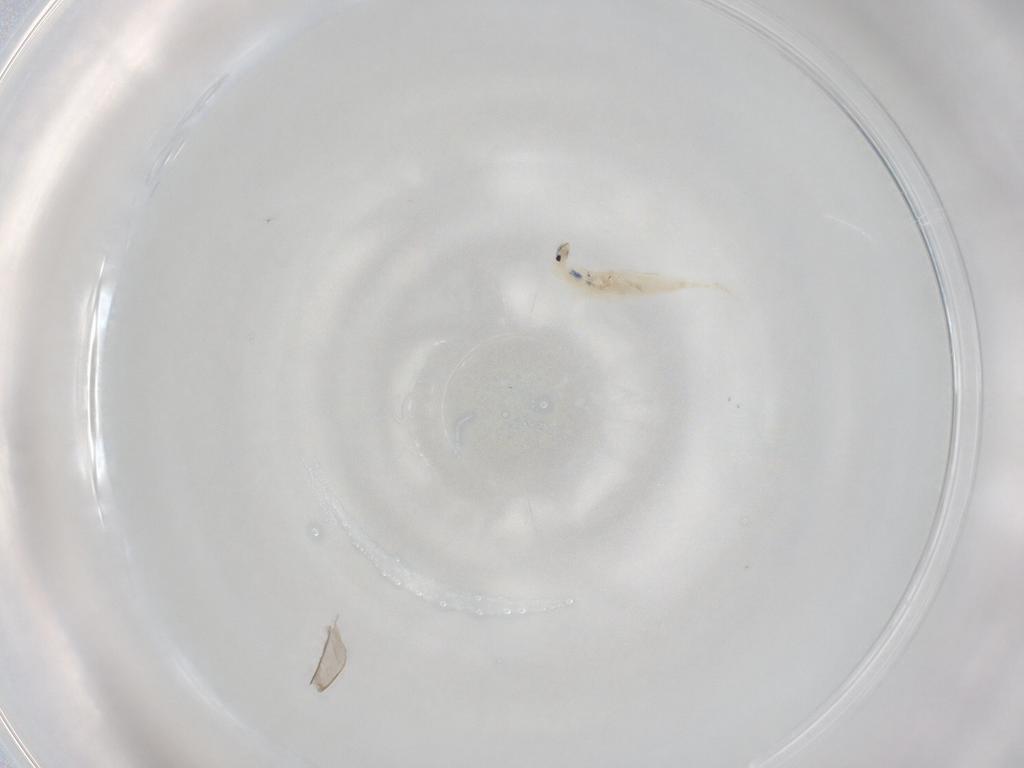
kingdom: Animalia
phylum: Arthropoda
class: Collembola
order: Entomobryomorpha
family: Entomobryidae
